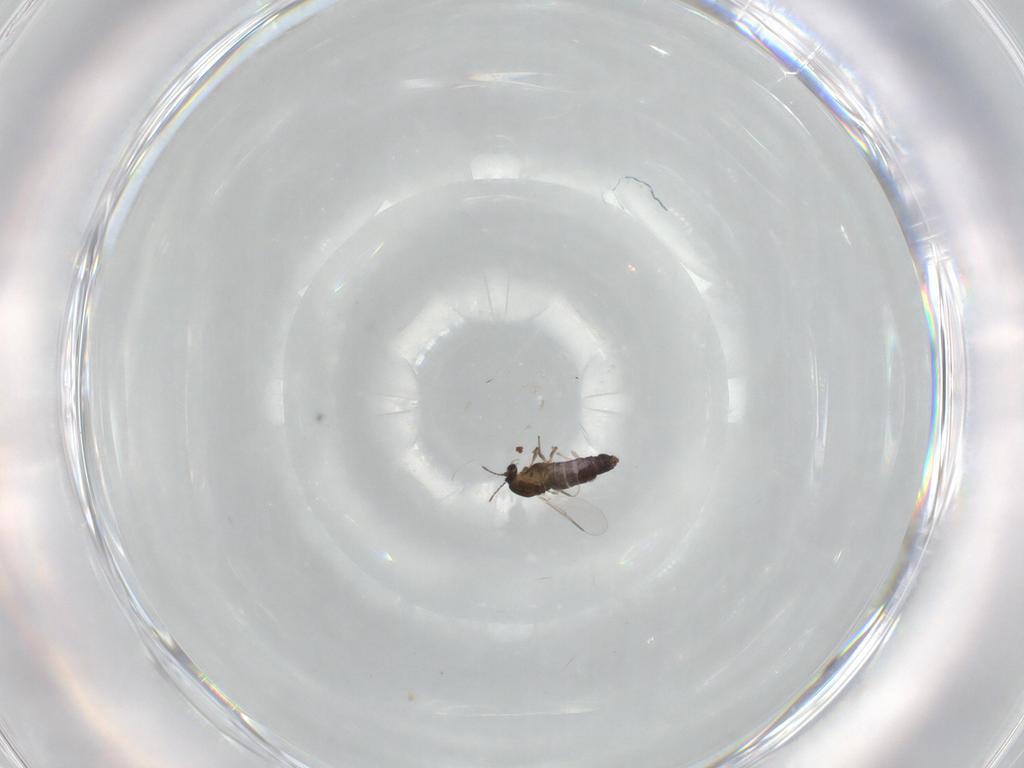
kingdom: Animalia
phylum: Arthropoda
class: Insecta
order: Diptera
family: Chironomidae
